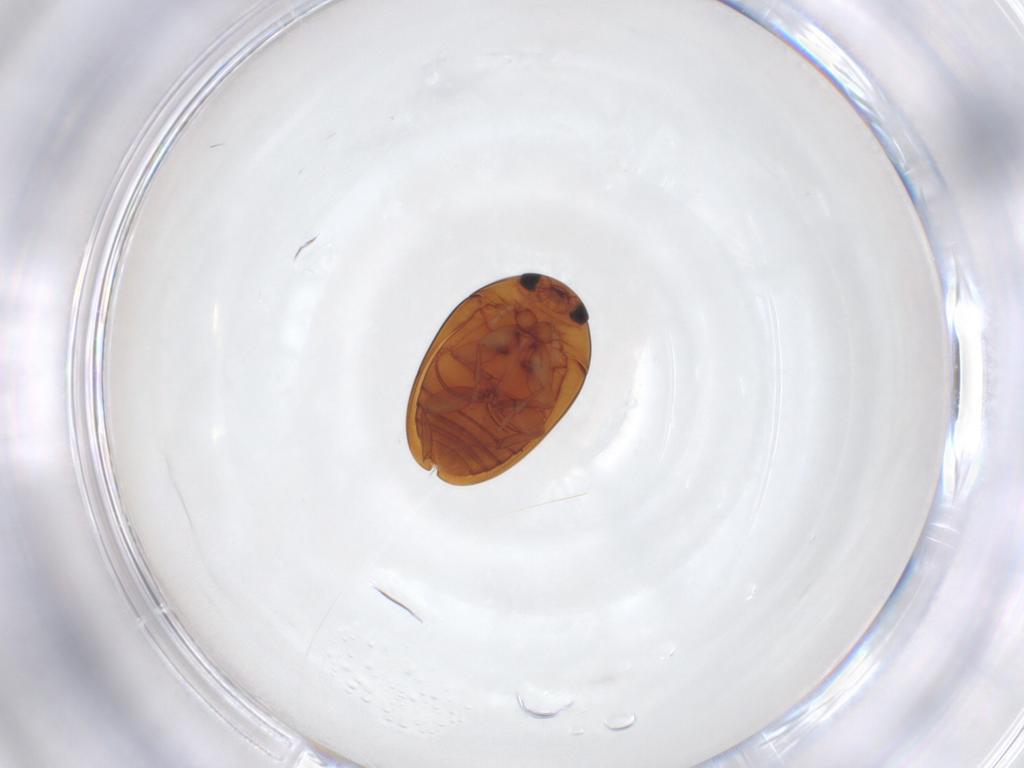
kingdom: Animalia
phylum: Arthropoda
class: Insecta
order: Coleoptera
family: Phalacridae
